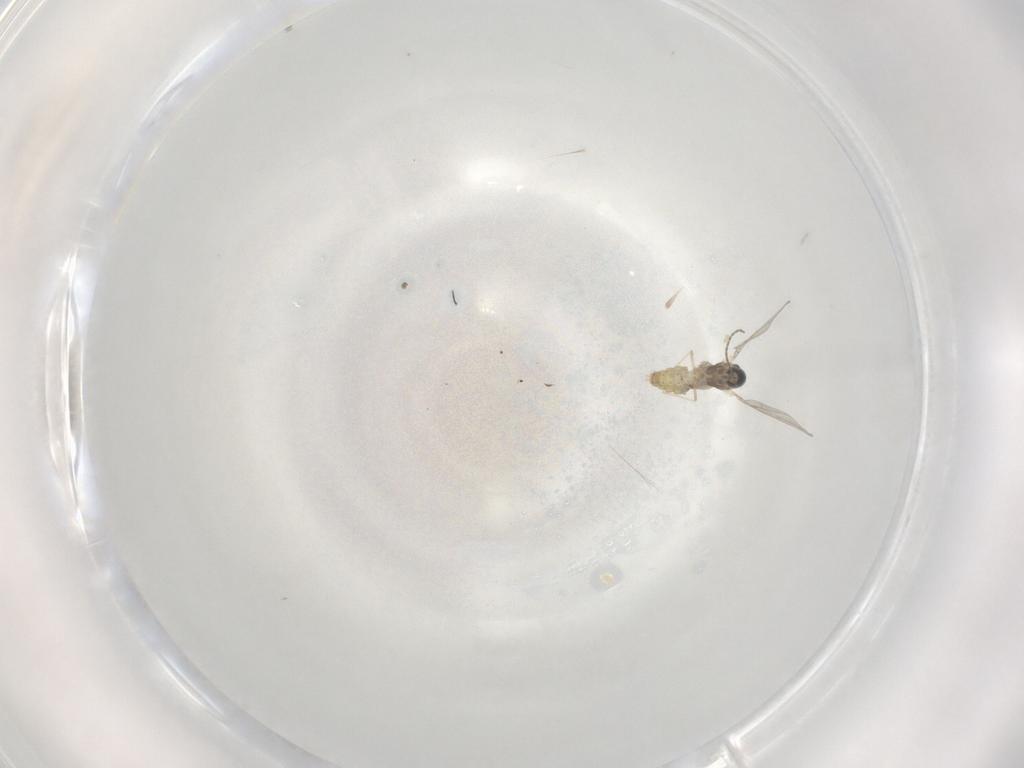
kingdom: Animalia
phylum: Arthropoda
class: Insecta
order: Diptera
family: Cecidomyiidae
